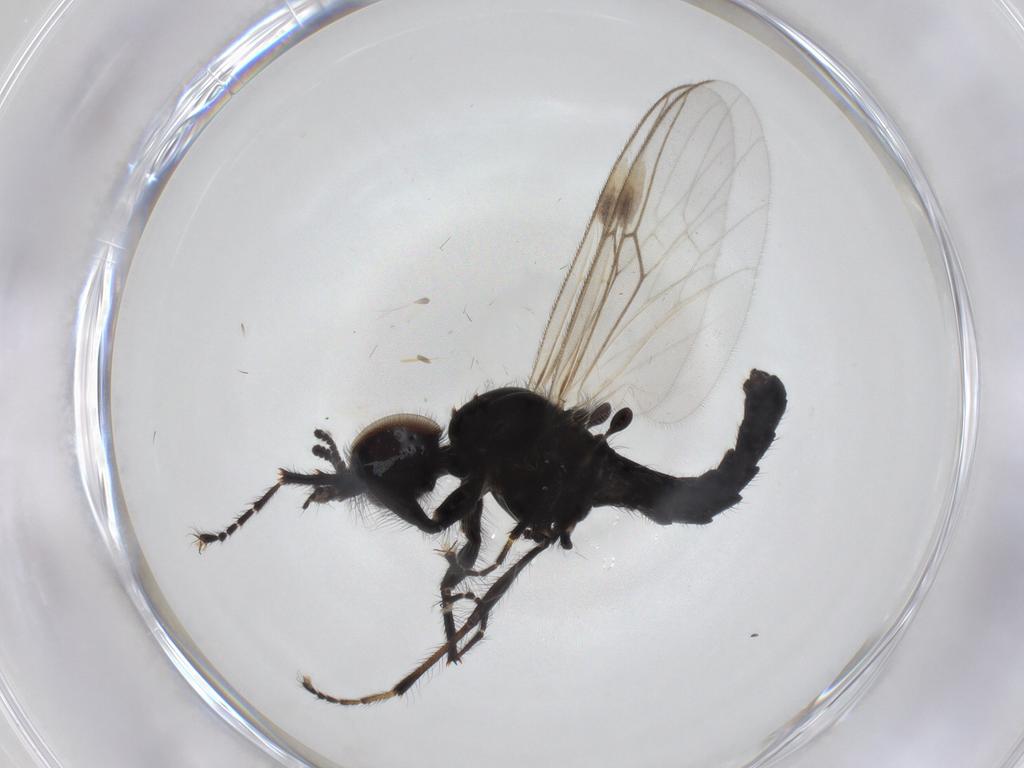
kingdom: Animalia
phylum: Arthropoda
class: Insecta
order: Diptera
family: Bibionidae
